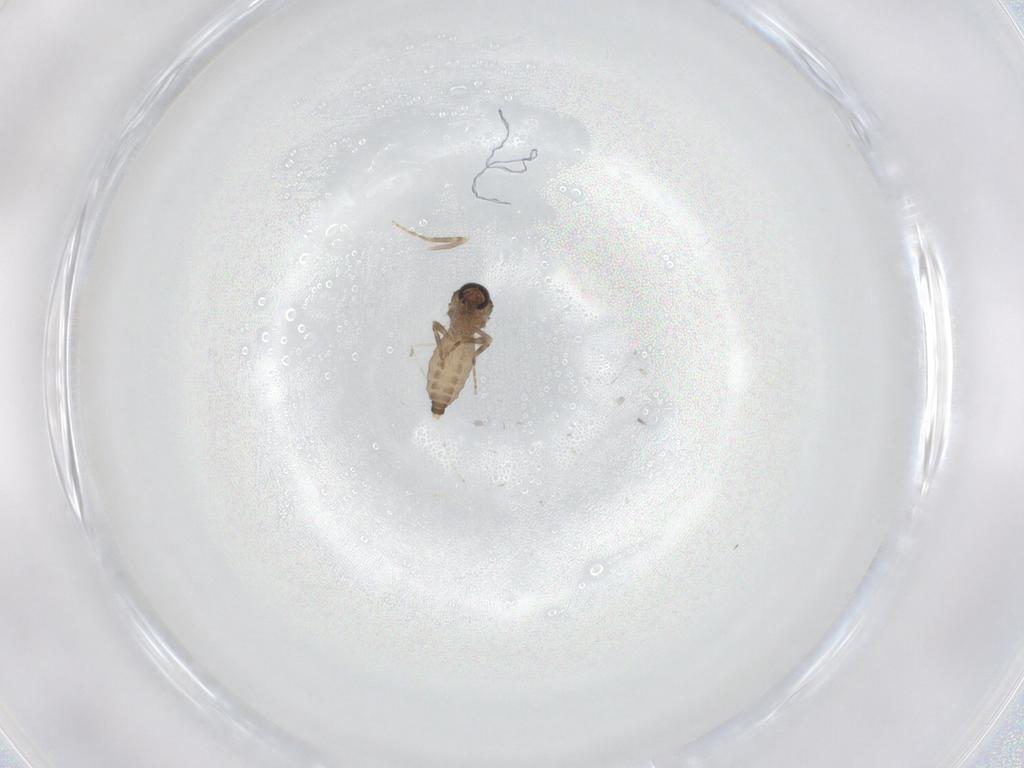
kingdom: Animalia
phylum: Arthropoda
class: Insecta
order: Diptera
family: Ceratopogonidae
